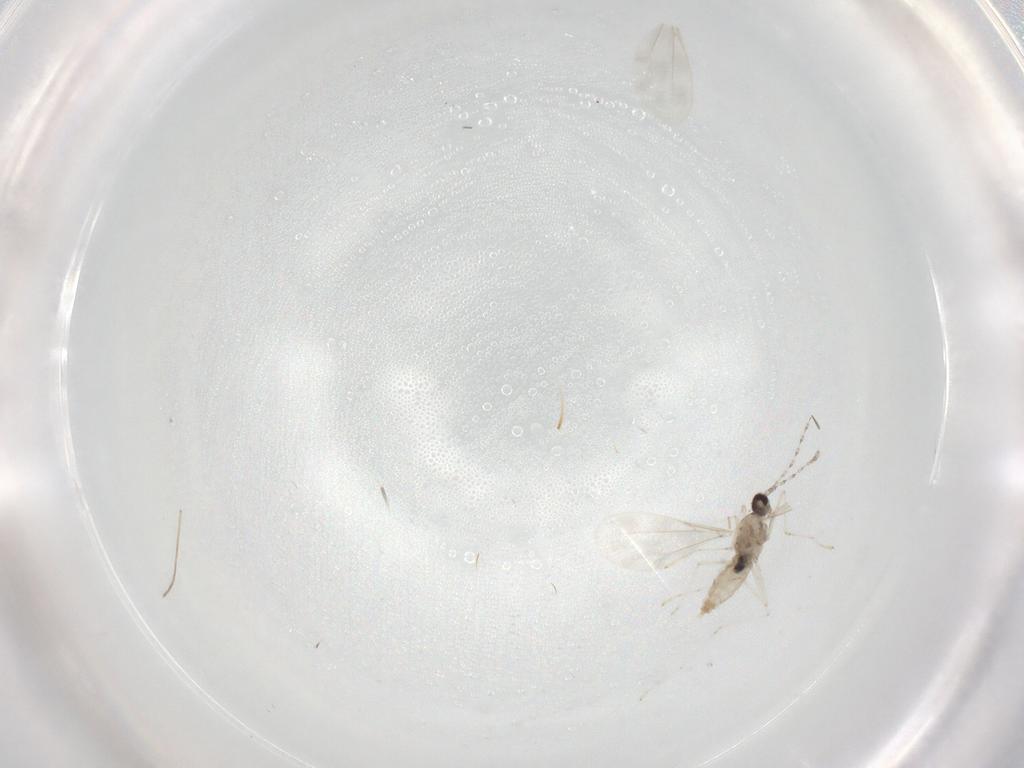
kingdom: Animalia
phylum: Arthropoda
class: Insecta
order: Diptera
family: Cecidomyiidae
